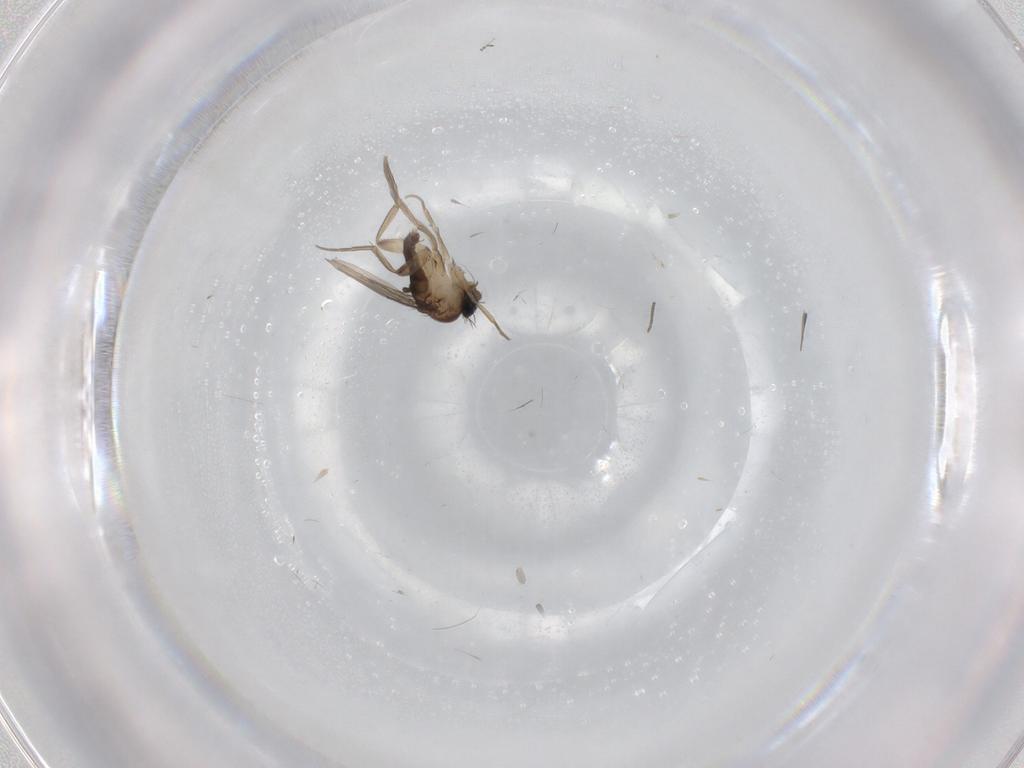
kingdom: Animalia
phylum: Arthropoda
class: Insecta
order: Diptera
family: Phoridae
